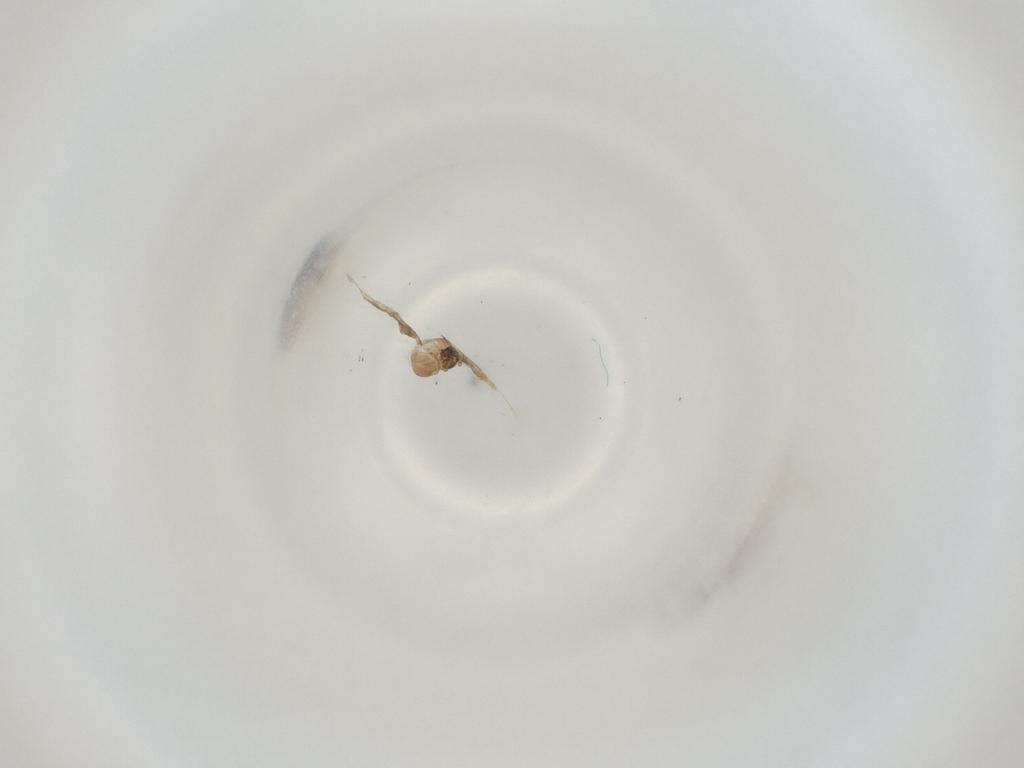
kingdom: Animalia
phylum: Arthropoda
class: Insecta
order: Diptera
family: Cecidomyiidae
